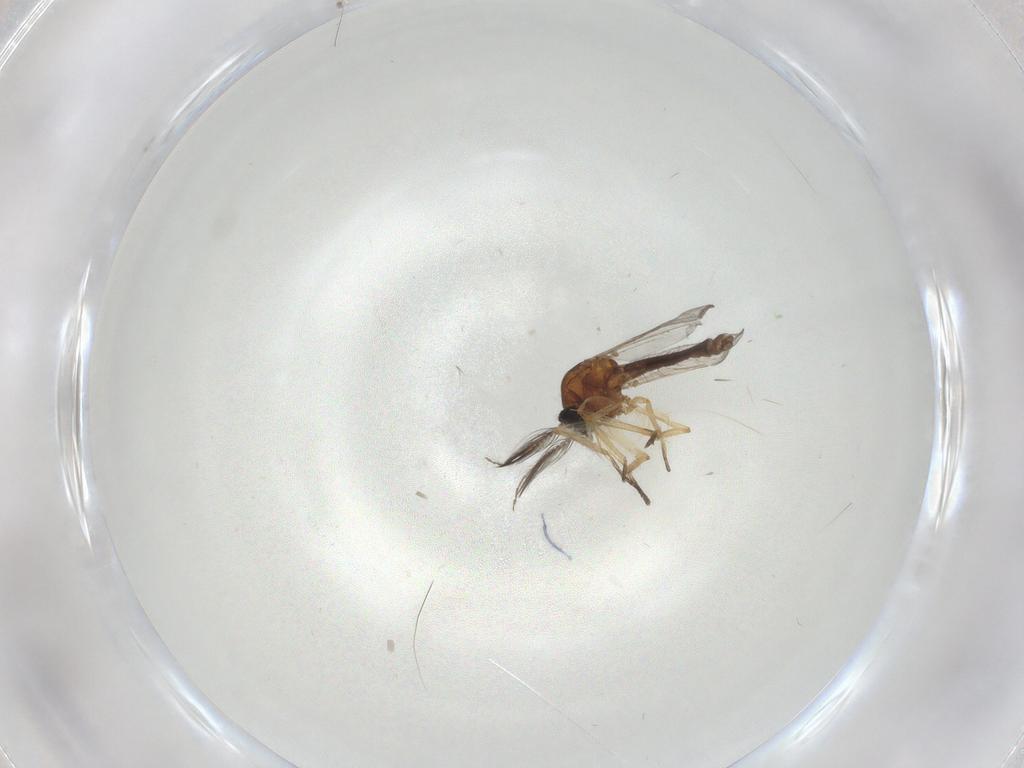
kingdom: Animalia
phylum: Arthropoda
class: Insecta
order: Diptera
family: Ceratopogonidae
